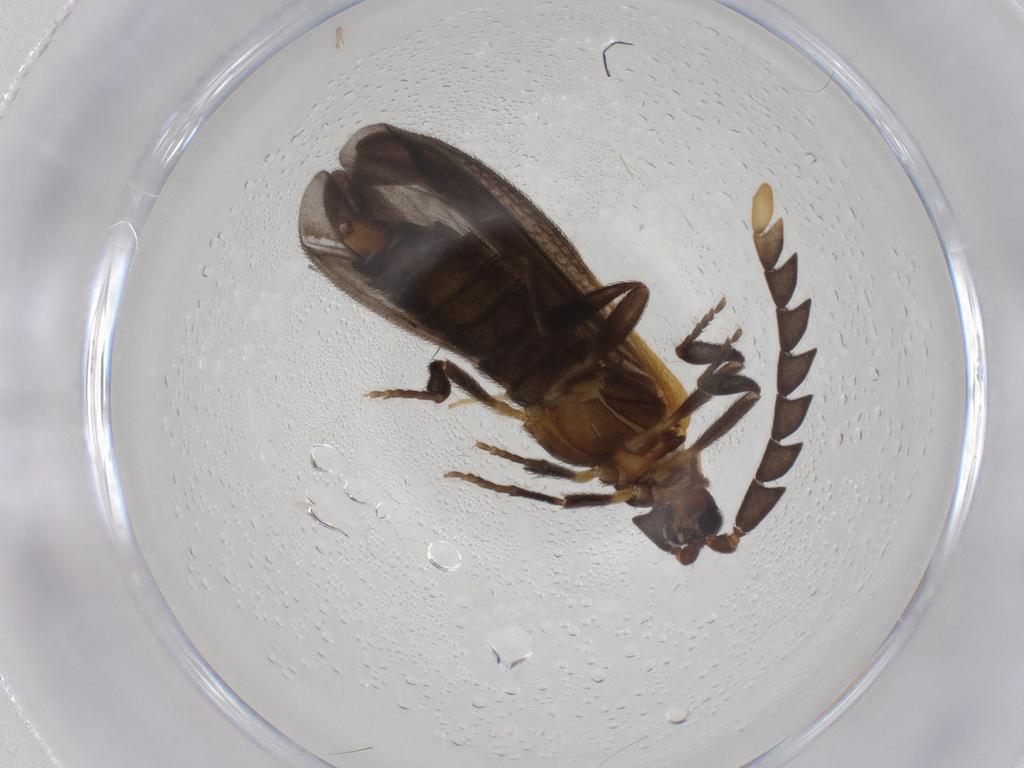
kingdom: Animalia
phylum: Arthropoda
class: Insecta
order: Coleoptera
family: Lycidae
